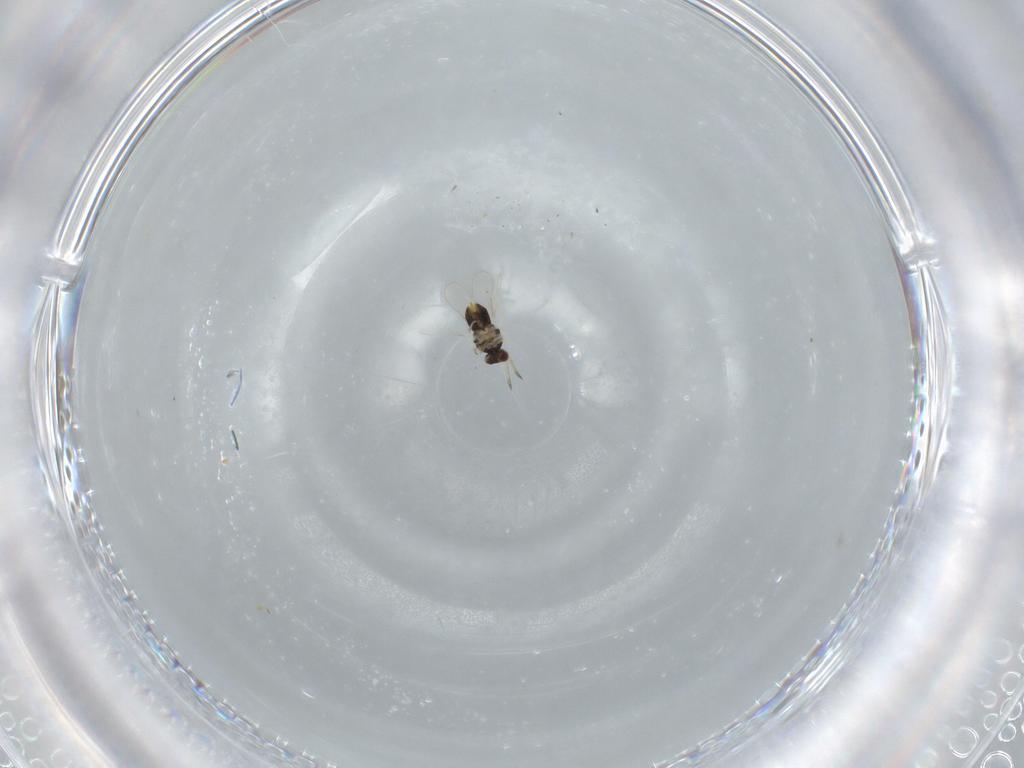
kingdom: Animalia
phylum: Arthropoda
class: Insecta
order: Hymenoptera
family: Aphelinidae
